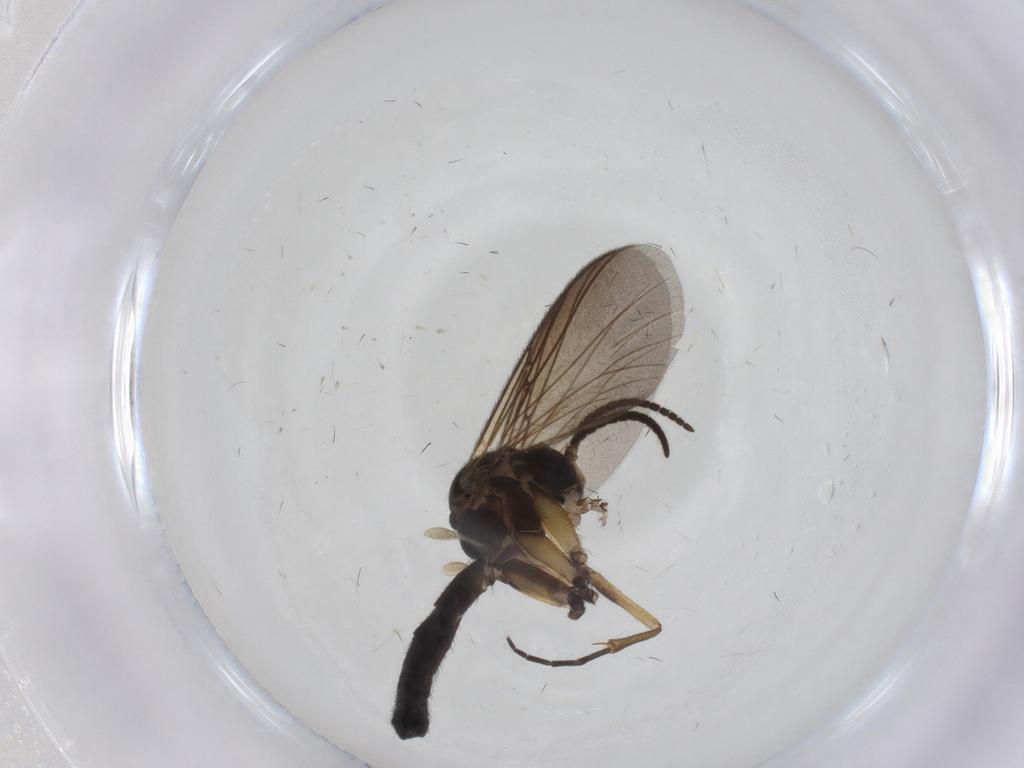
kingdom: Animalia
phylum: Arthropoda
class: Insecta
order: Diptera
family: Mycetophilidae
